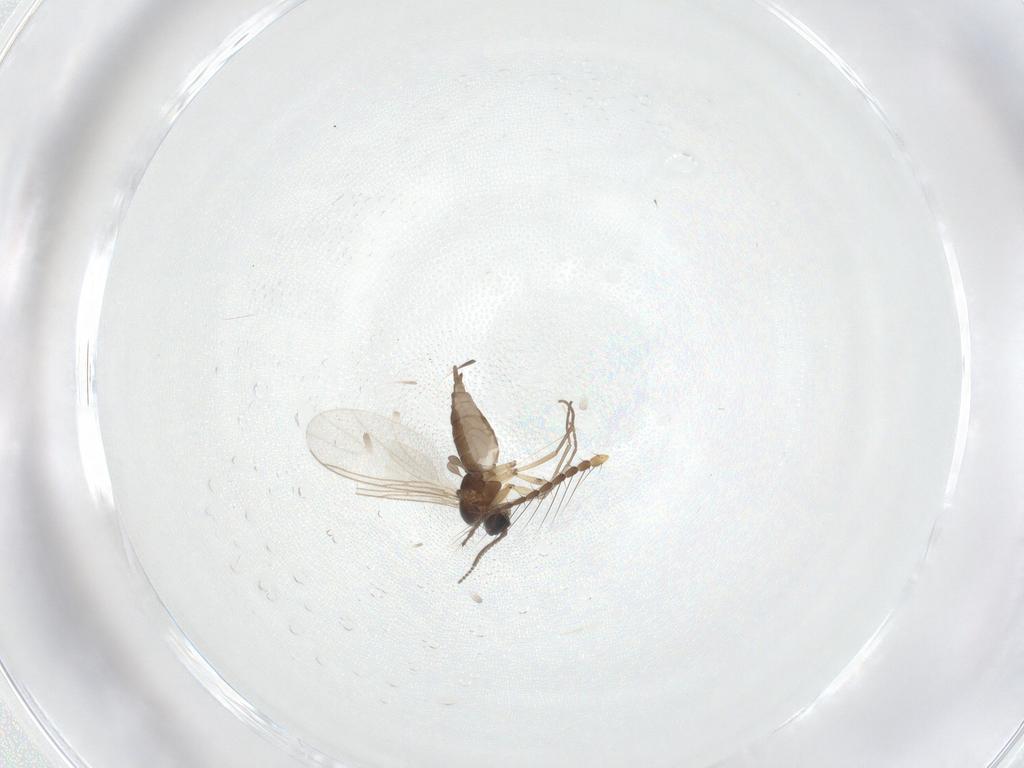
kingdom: Animalia
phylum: Arthropoda
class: Insecta
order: Diptera
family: Sciaridae
